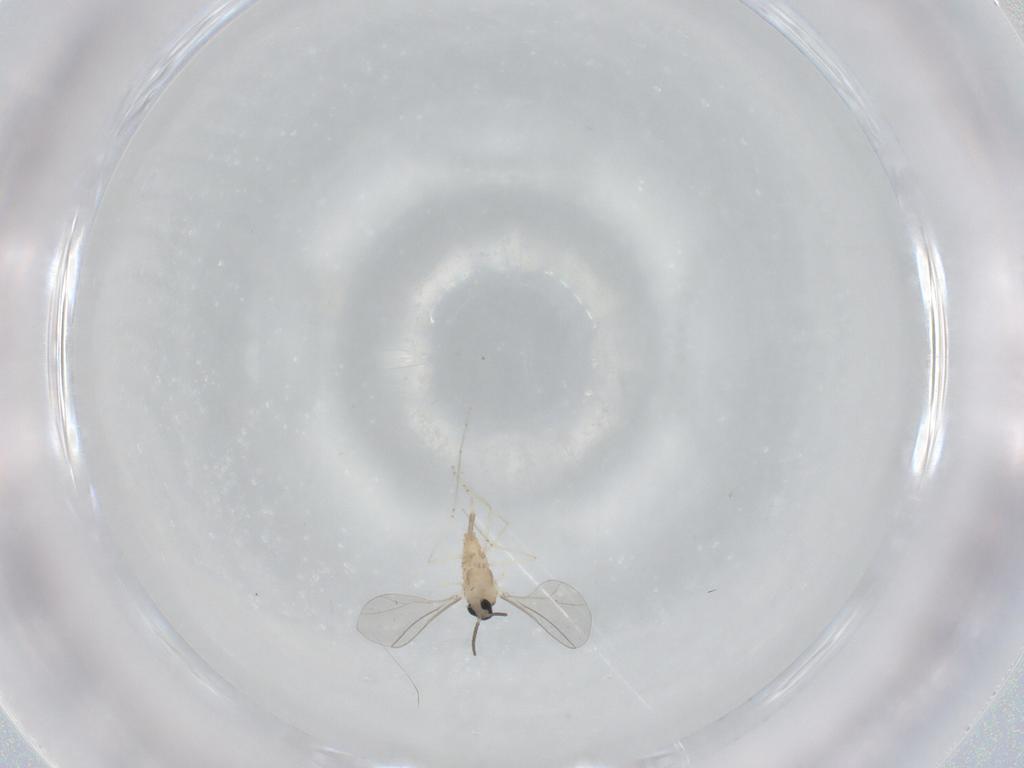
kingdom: Animalia
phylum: Arthropoda
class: Insecta
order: Diptera
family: Cecidomyiidae
